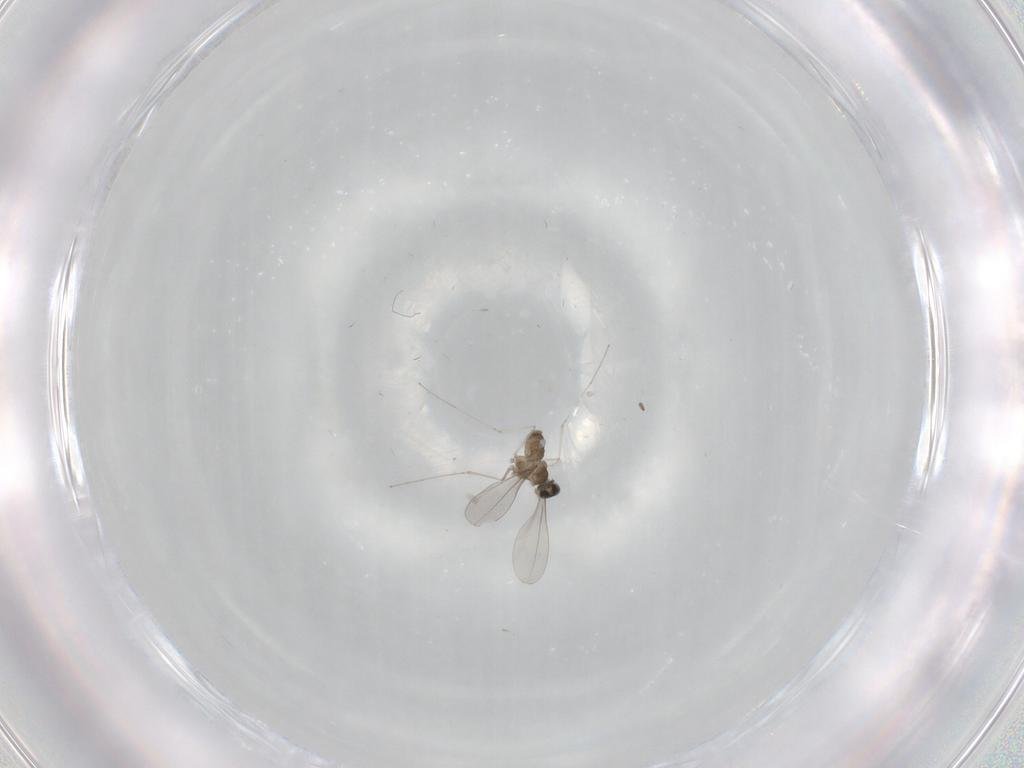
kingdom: Animalia
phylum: Arthropoda
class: Insecta
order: Diptera
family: Cecidomyiidae
